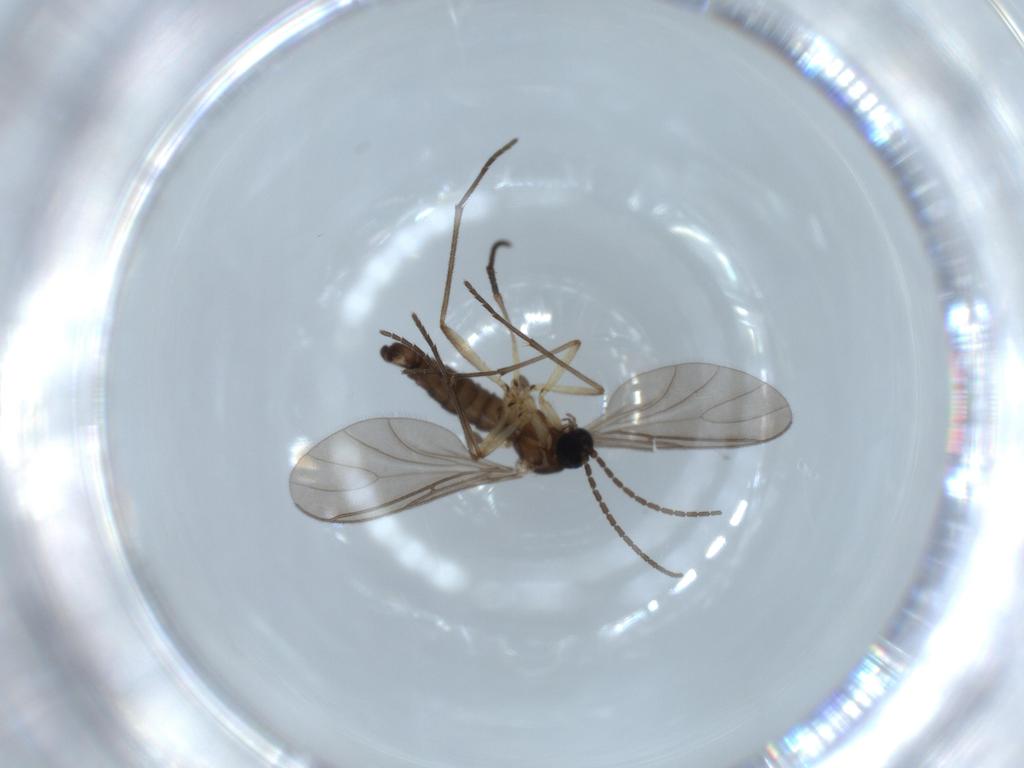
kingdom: Animalia
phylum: Arthropoda
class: Insecta
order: Diptera
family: Sciaridae
